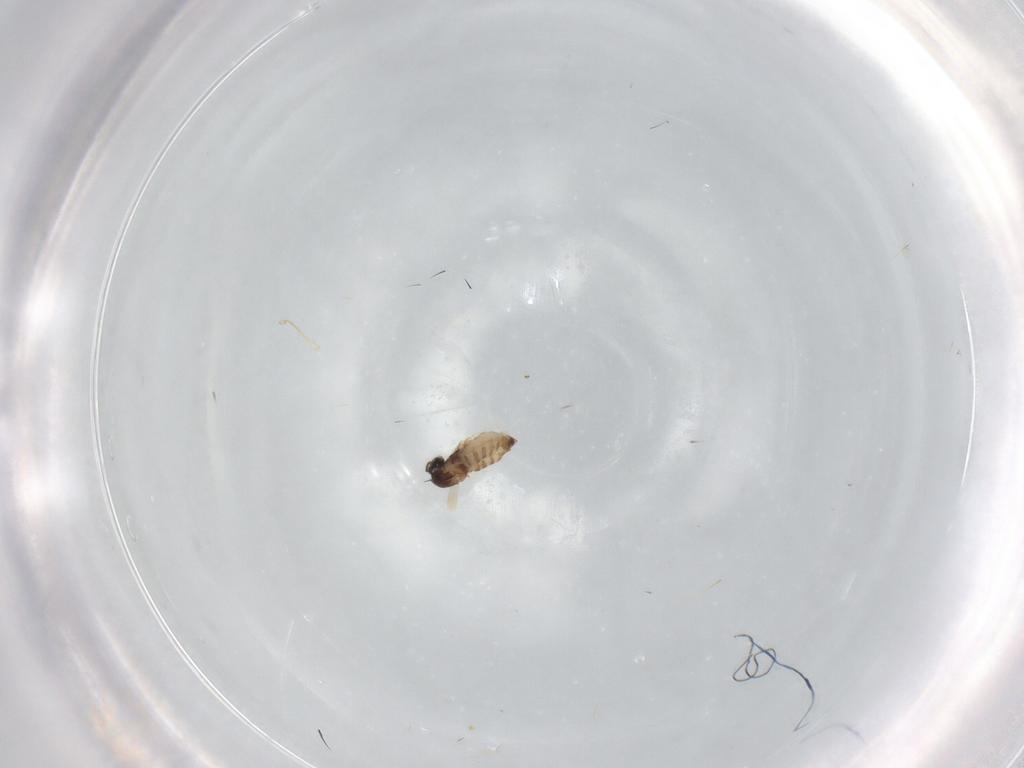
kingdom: Animalia
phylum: Arthropoda
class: Insecta
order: Diptera
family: Cecidomyiidae
